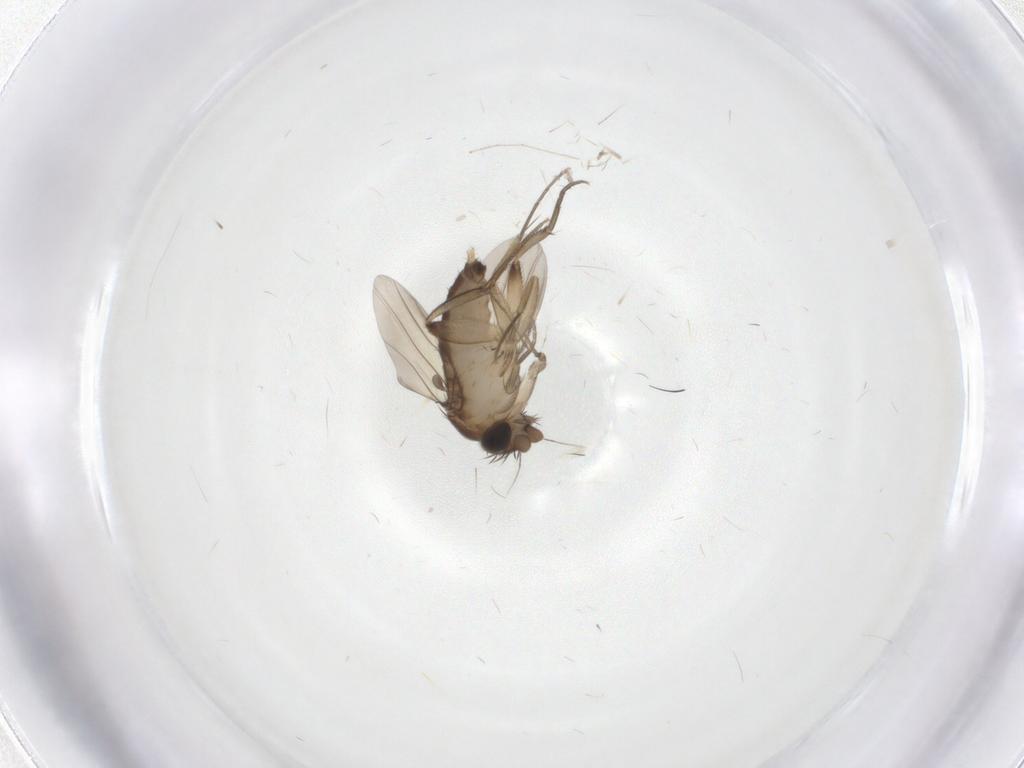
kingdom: Animalia
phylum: Arthropoda
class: Insecta
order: Diptera
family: Phoridae
